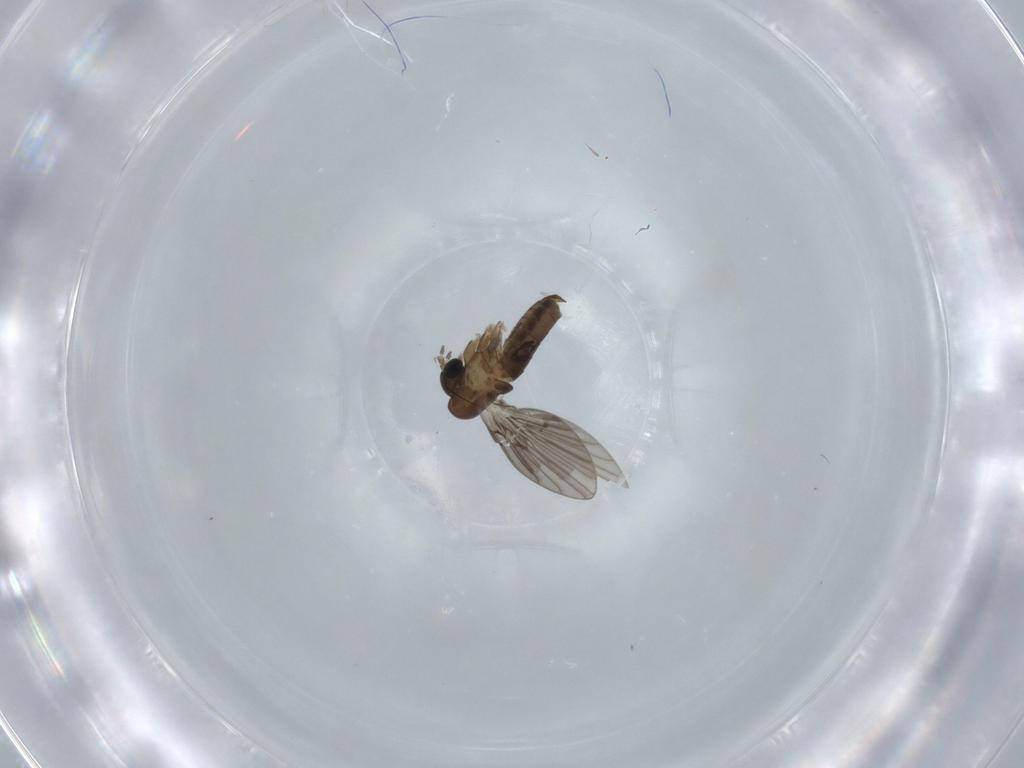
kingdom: Animalia
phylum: Arthropoda
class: Insecta
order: Diptera
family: Psychodidae
